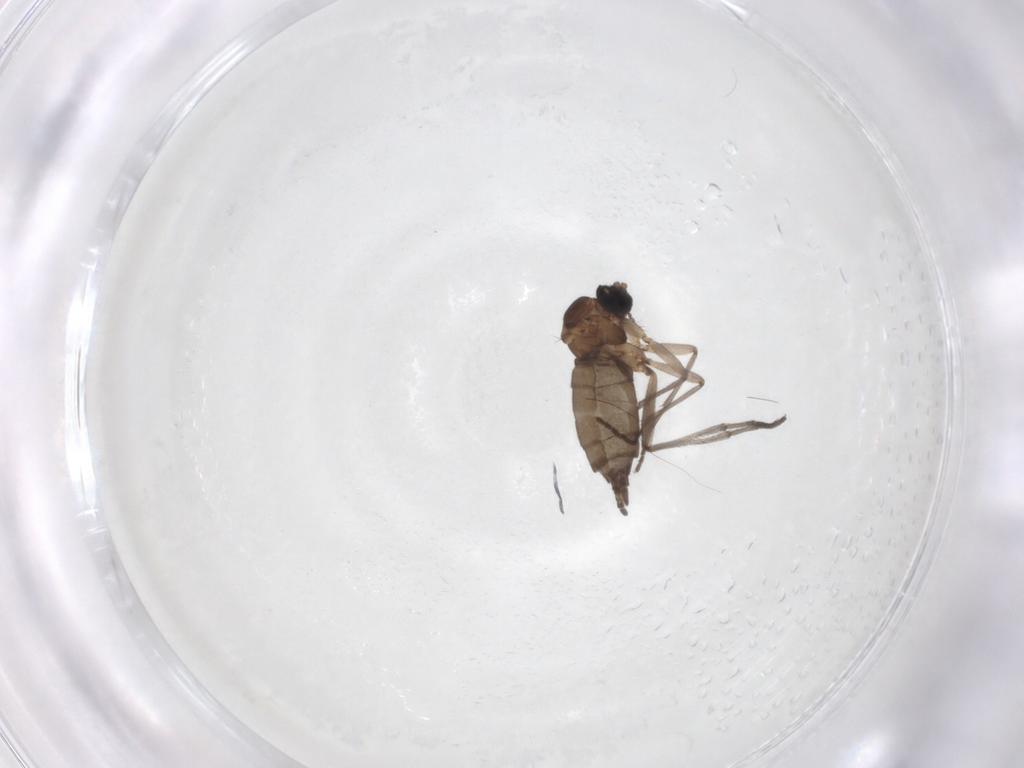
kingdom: Animalia
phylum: Arthropoda
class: Insecta
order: Diptera
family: Sciaridae
